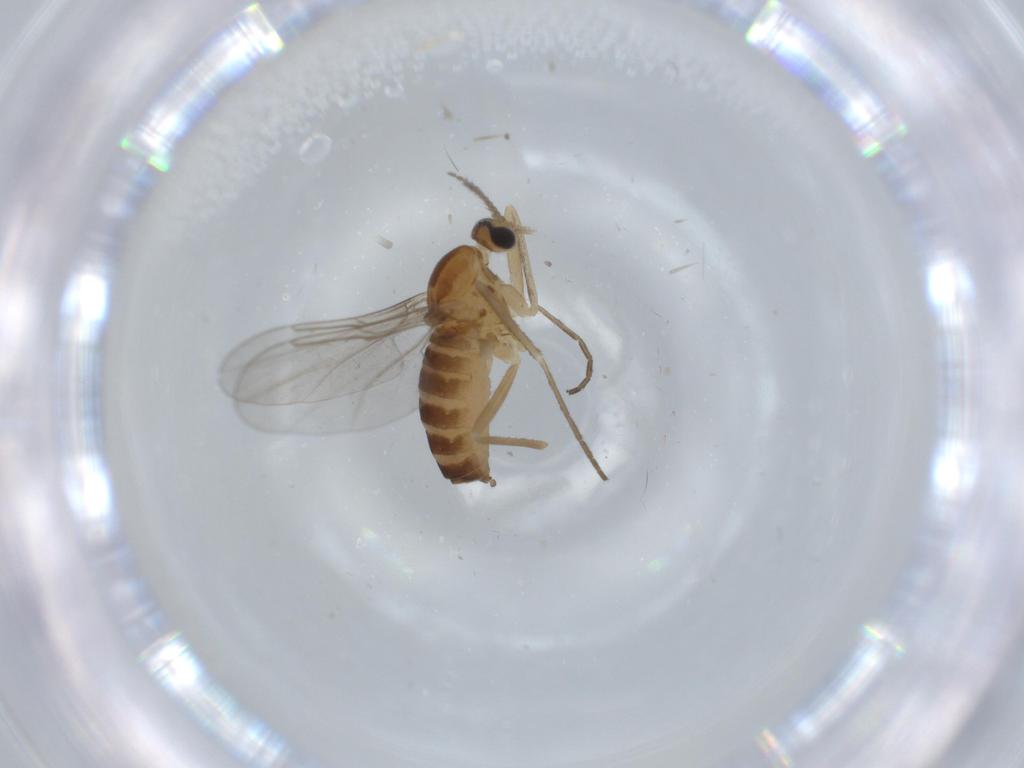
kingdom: Animalia
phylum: Arthropoda
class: Insecta
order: Diptera
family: Cecidomyiidae
